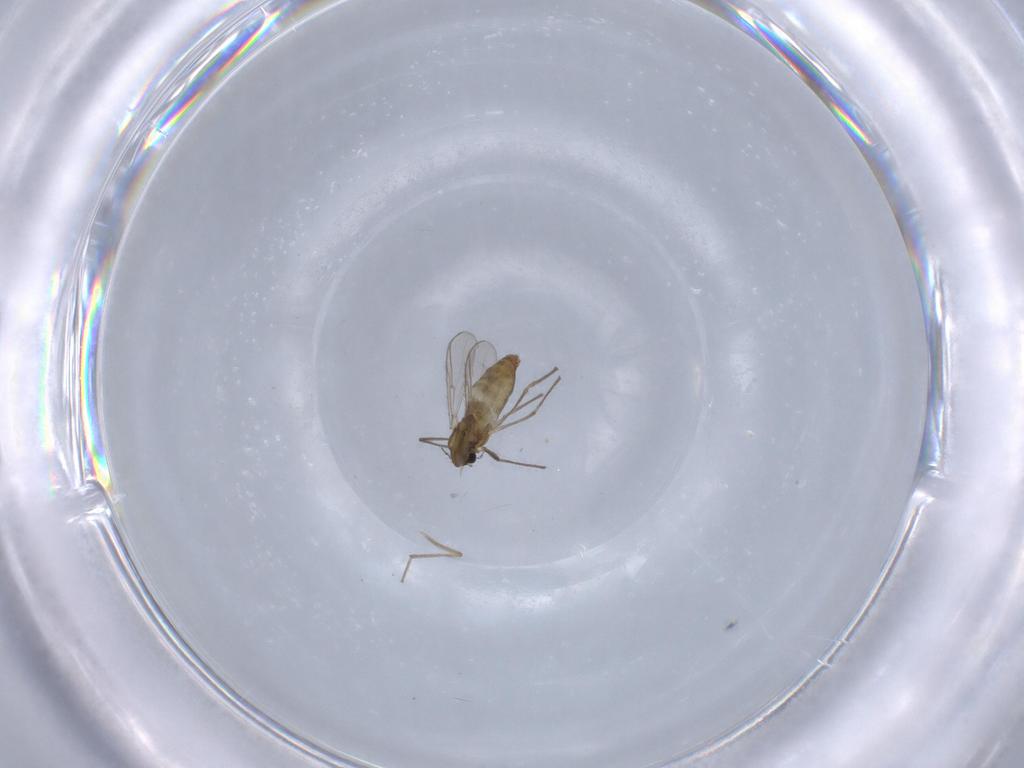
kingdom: Animalia
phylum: Arthropoda
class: Insecta
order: Diptera
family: Chironomidae
